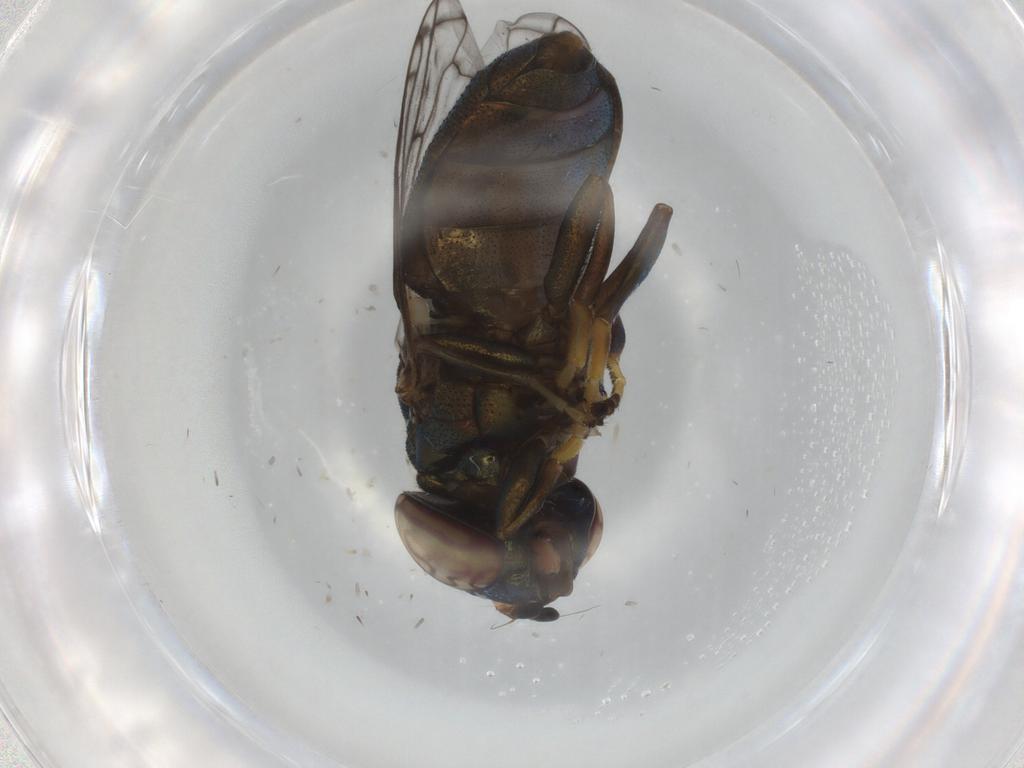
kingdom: Animalia
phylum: Arthropoda
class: Insecta
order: Diptera
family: Syrphidae
